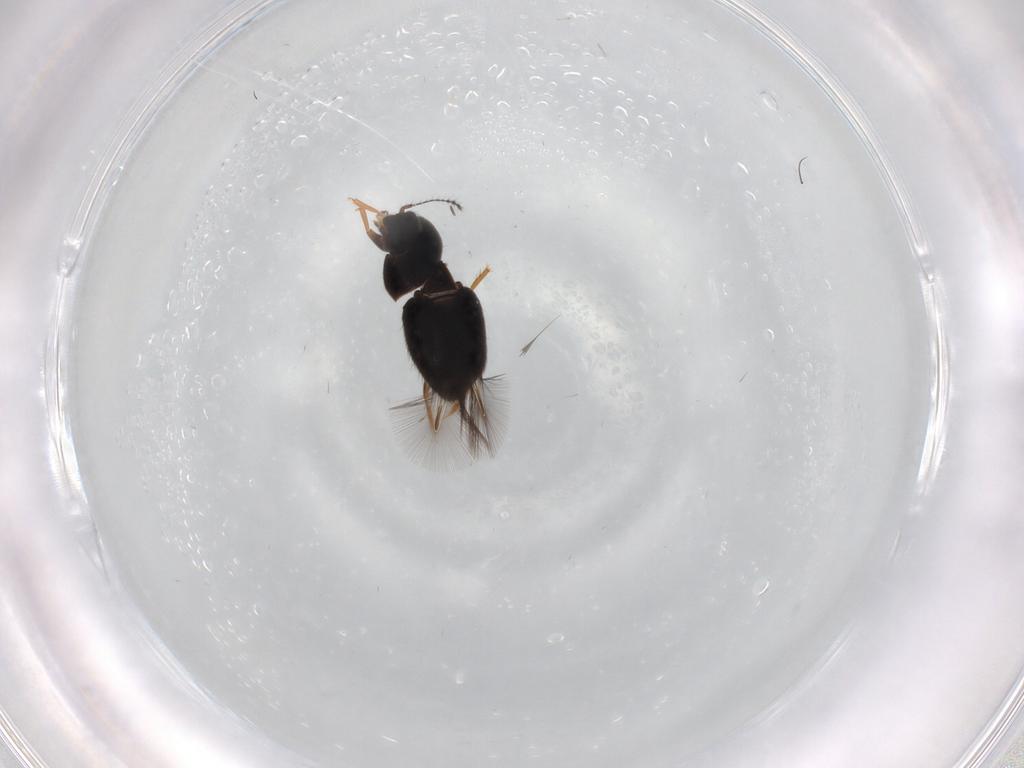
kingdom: Animalia
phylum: Arthropoda
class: Insecta
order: Coleoptera
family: Ptiliidae
